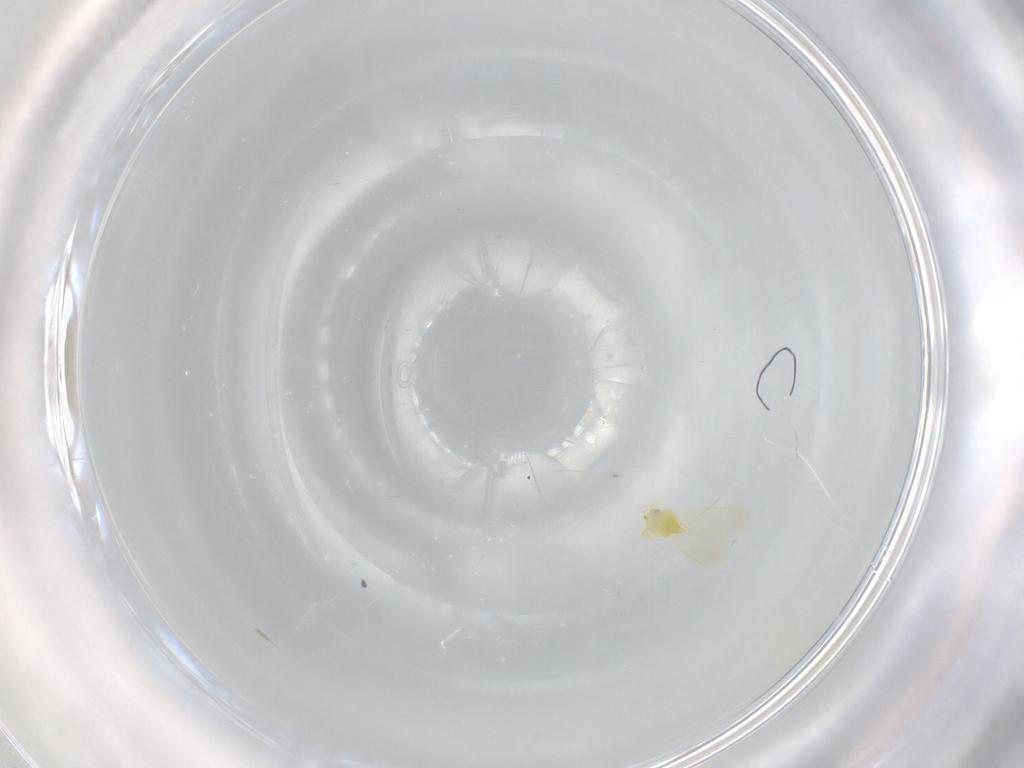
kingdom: Animalia
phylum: Arthropoda
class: Insecta
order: Hemiptera
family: Cicadellidae
